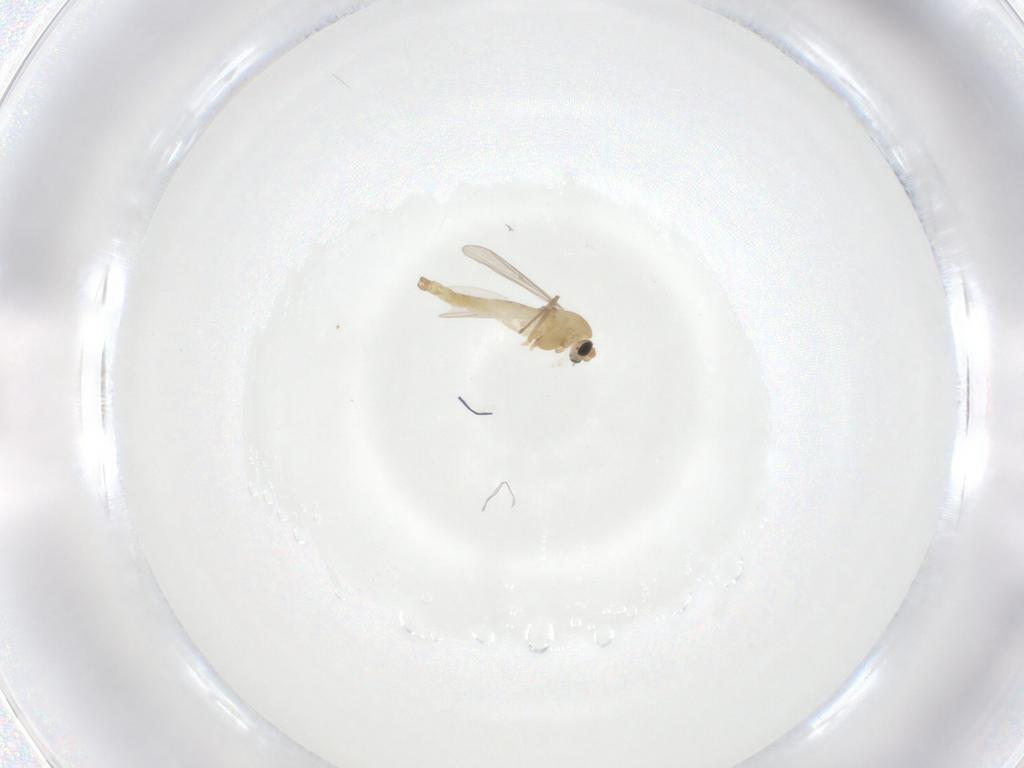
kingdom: Animalia
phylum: Arthropoda
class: Insecta
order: Diptera
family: Chironomidae
